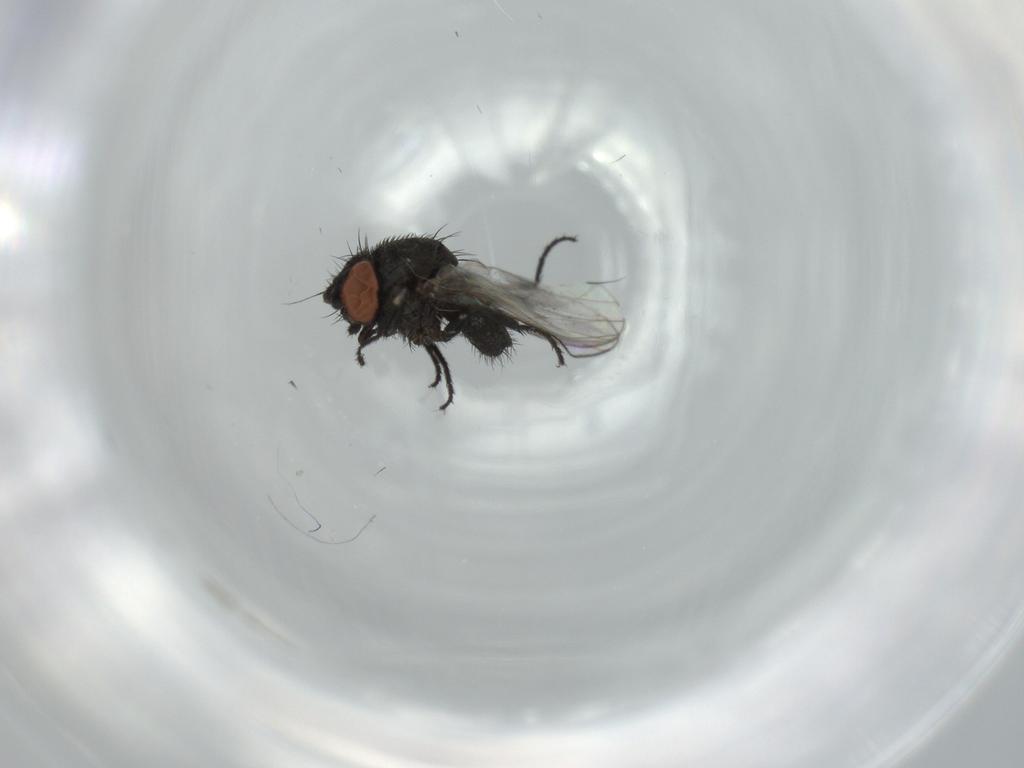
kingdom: Animalia
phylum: Arthropoda
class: Insecta
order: Diptera
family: Milichiidae
